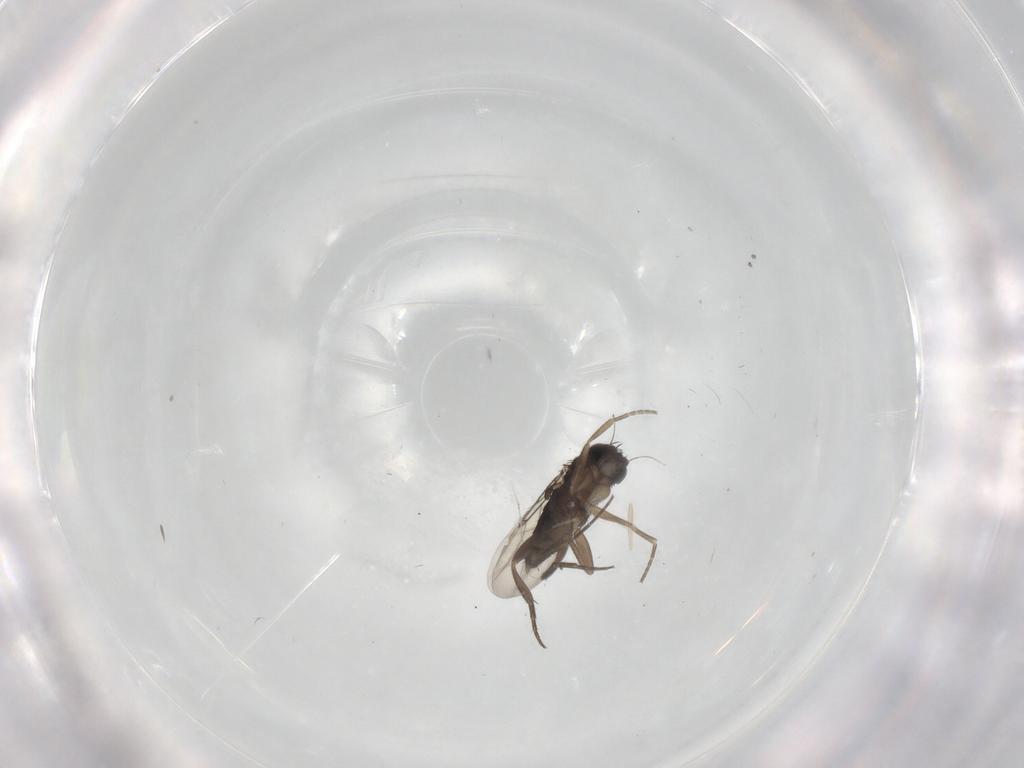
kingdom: Animalia
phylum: Arthropoda
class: Insecta
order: Diptera
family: Phoridae
